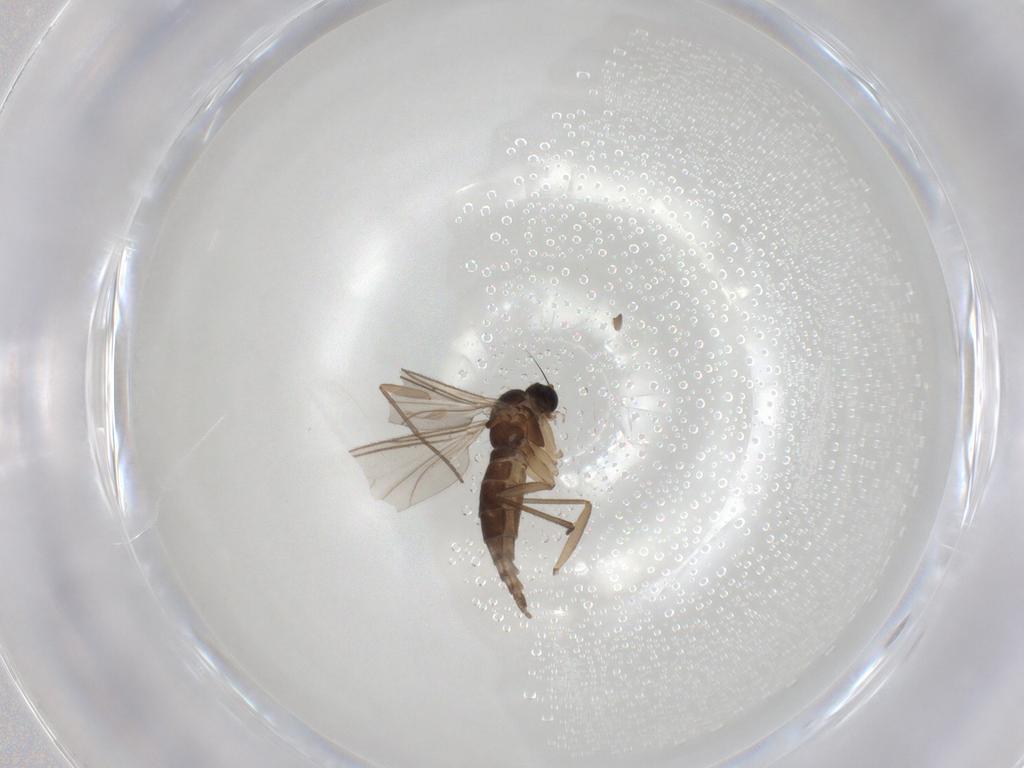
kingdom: Animalia
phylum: Arthropoda
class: Insecta
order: Diptera
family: Sciaridae
